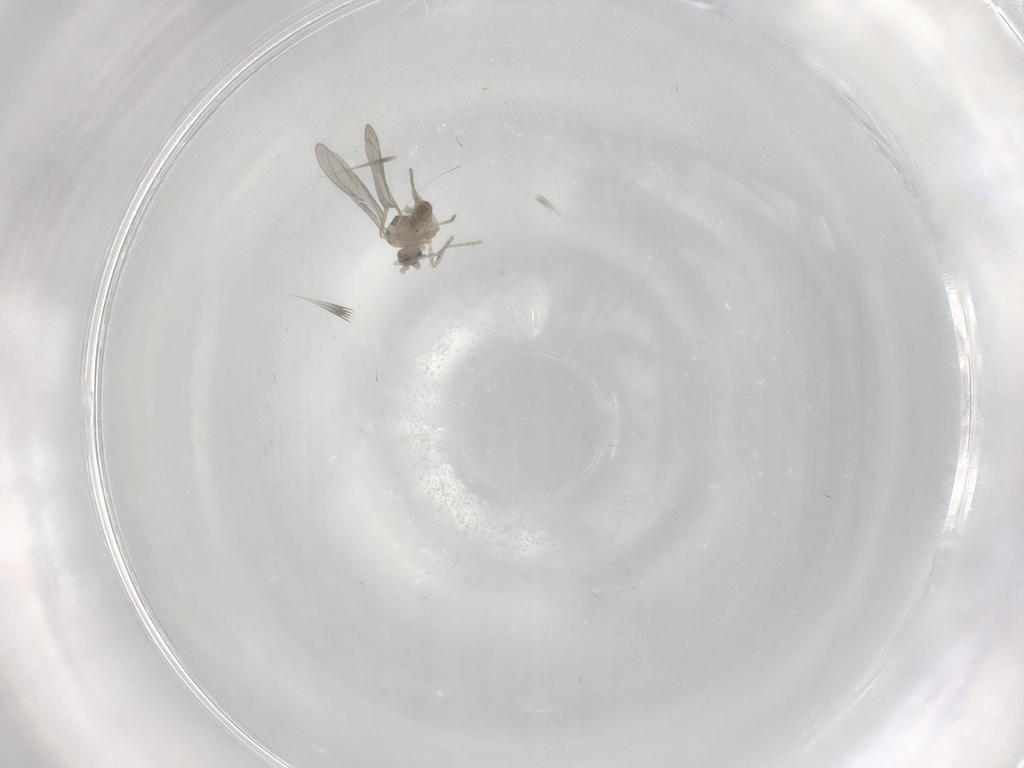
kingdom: Animalia
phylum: Arthropoda
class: Insecta
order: Diptera
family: Cecidomyiidae
